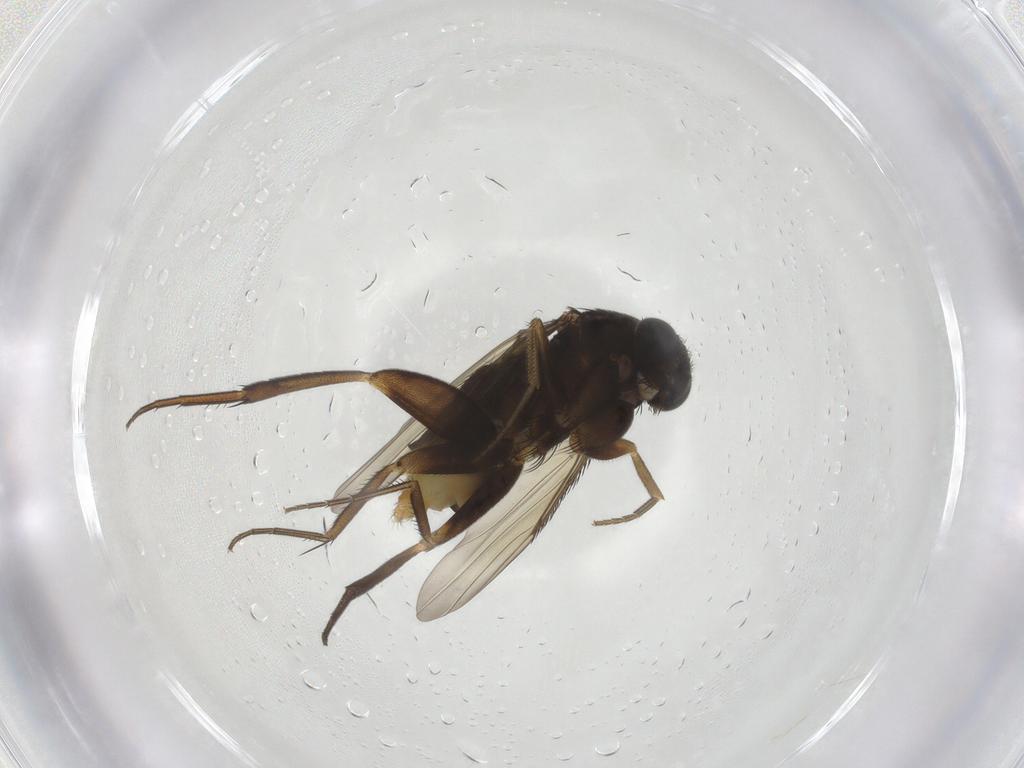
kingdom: Animalia
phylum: Arthropoda
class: Insecta
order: Diptera
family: Phoridae
